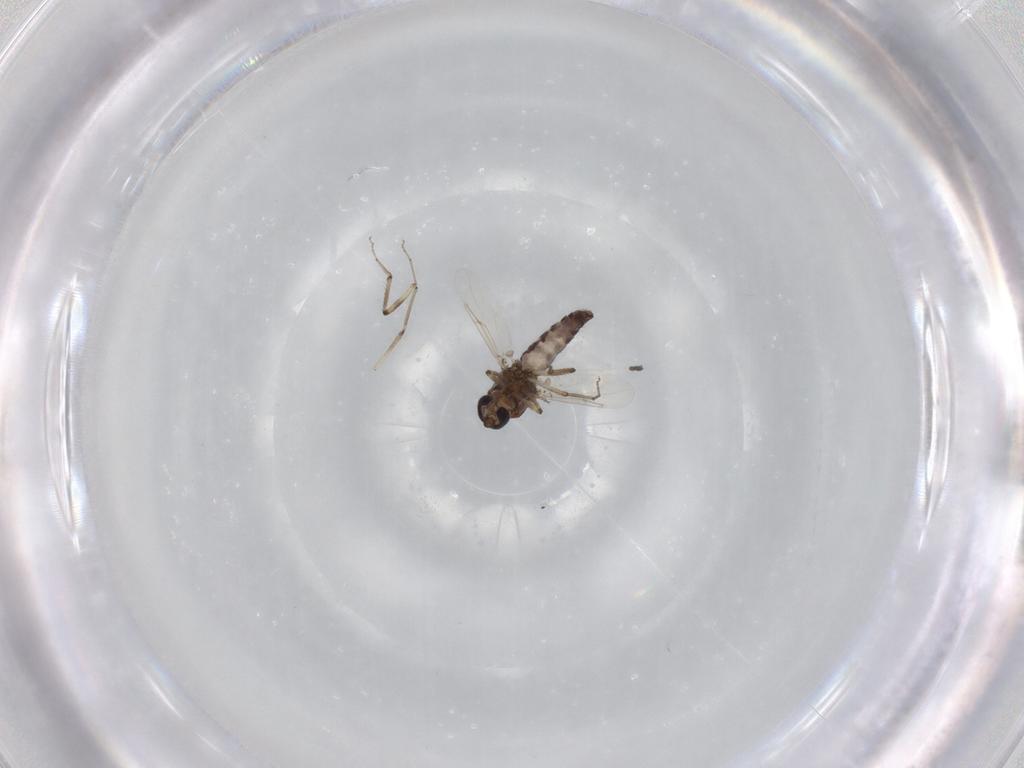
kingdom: Animalia
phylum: Arthropoda
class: Insecta
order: Diptera
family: Ceratopogonidae
